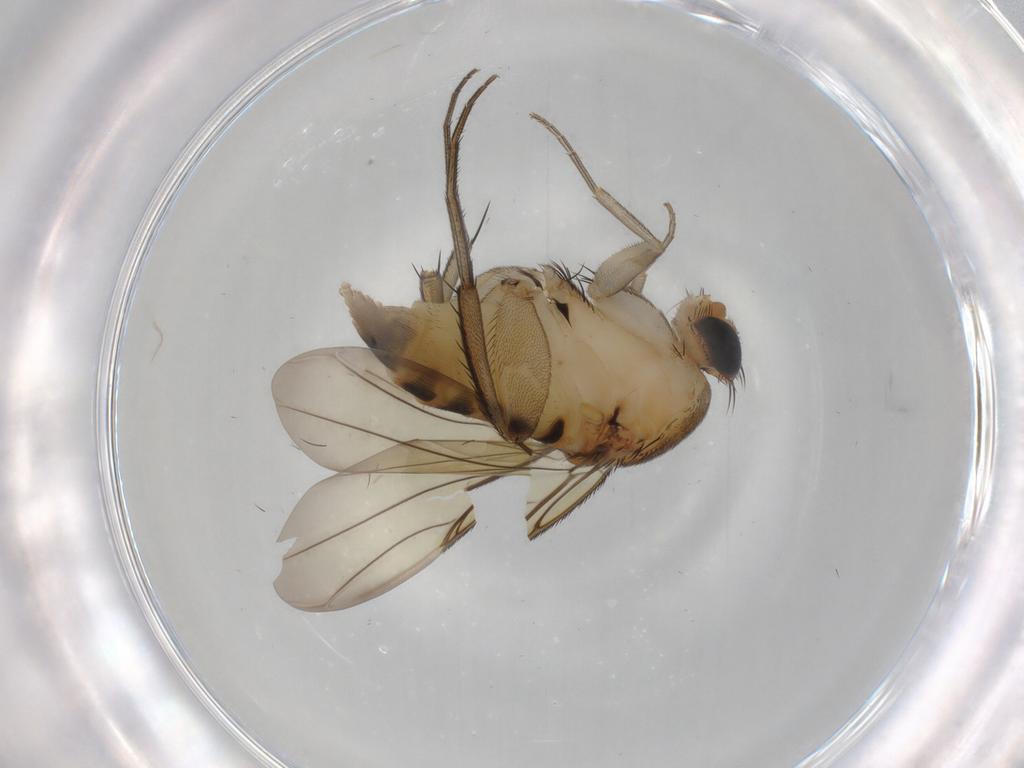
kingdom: Animalia
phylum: Arthropoda
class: Insecta
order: Diptera
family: Phoridae
